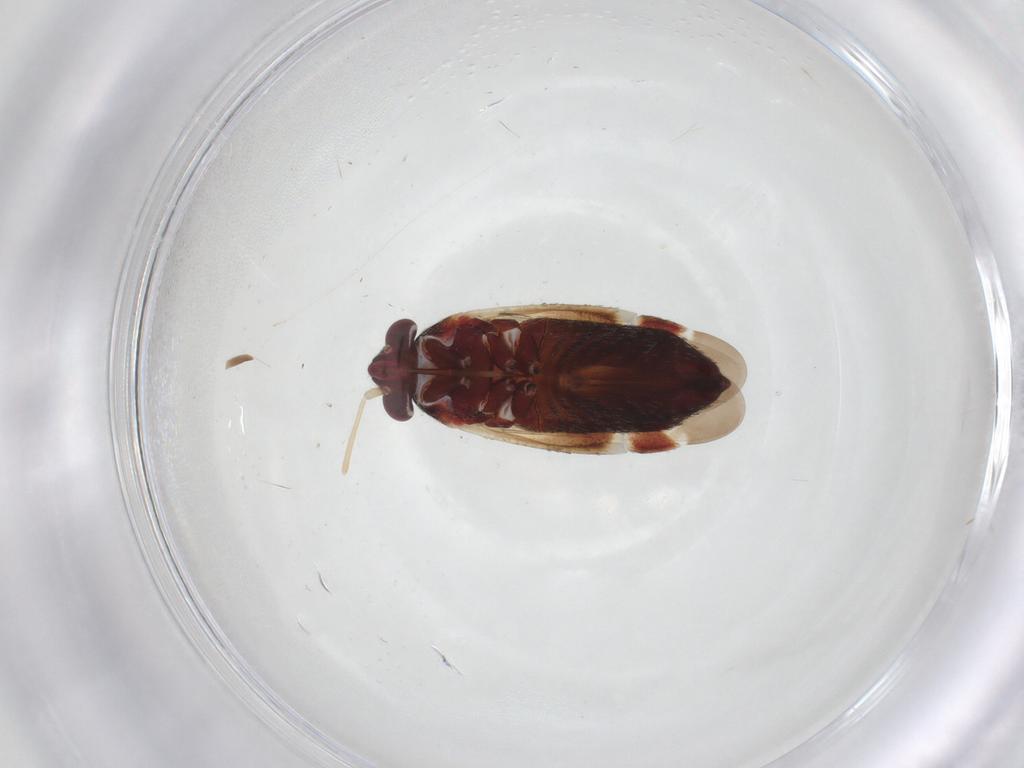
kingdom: Animalia
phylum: Arthropoda
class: Insecta
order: Hemiptera
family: Miridae
